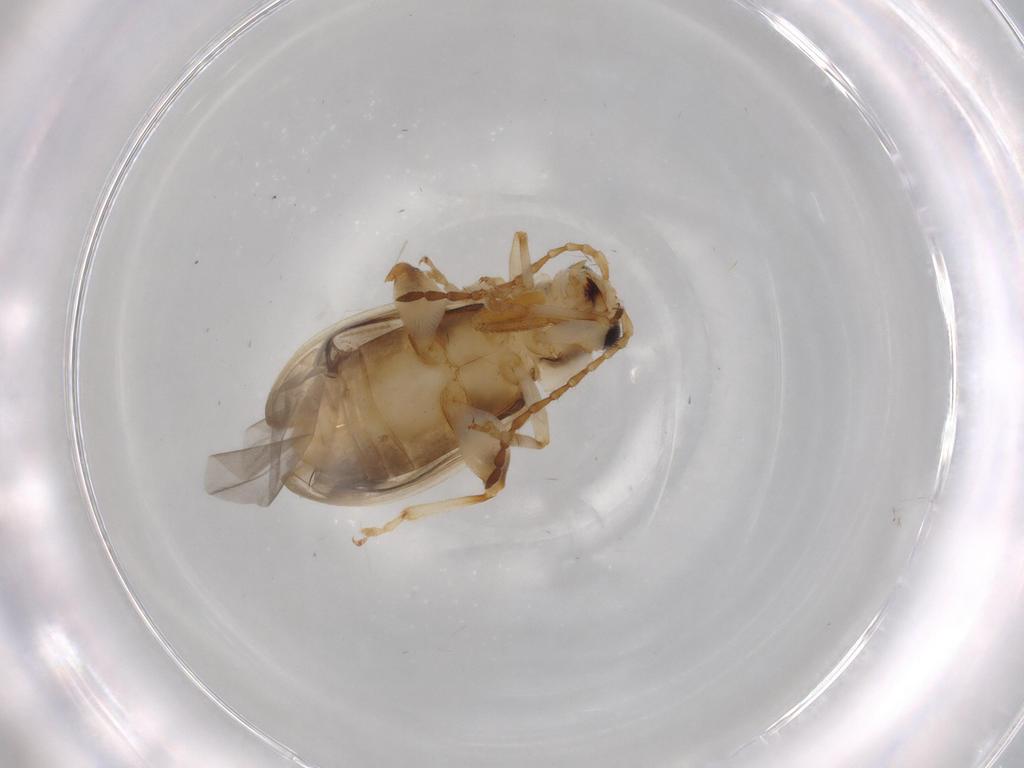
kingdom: Animalia
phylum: Arthropoda
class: Insecta
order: Coleoptera
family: Chrysomelidae
